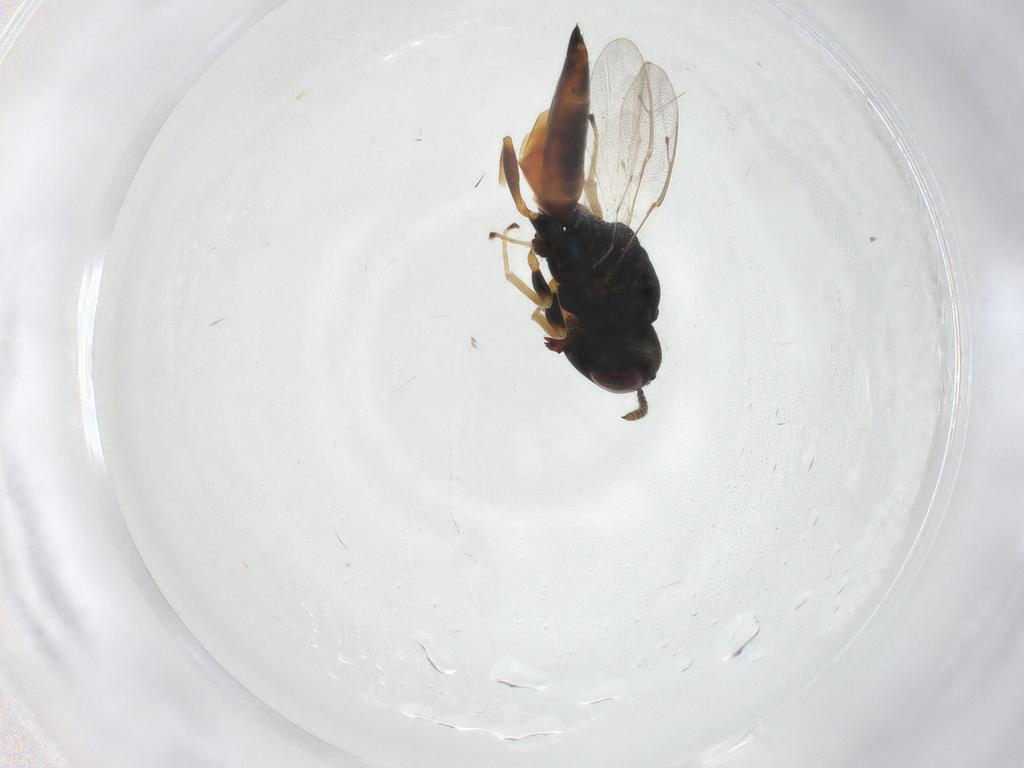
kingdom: Animalia
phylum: Arthropoda
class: Insecta
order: Hymenoptera
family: Pteromalidae
